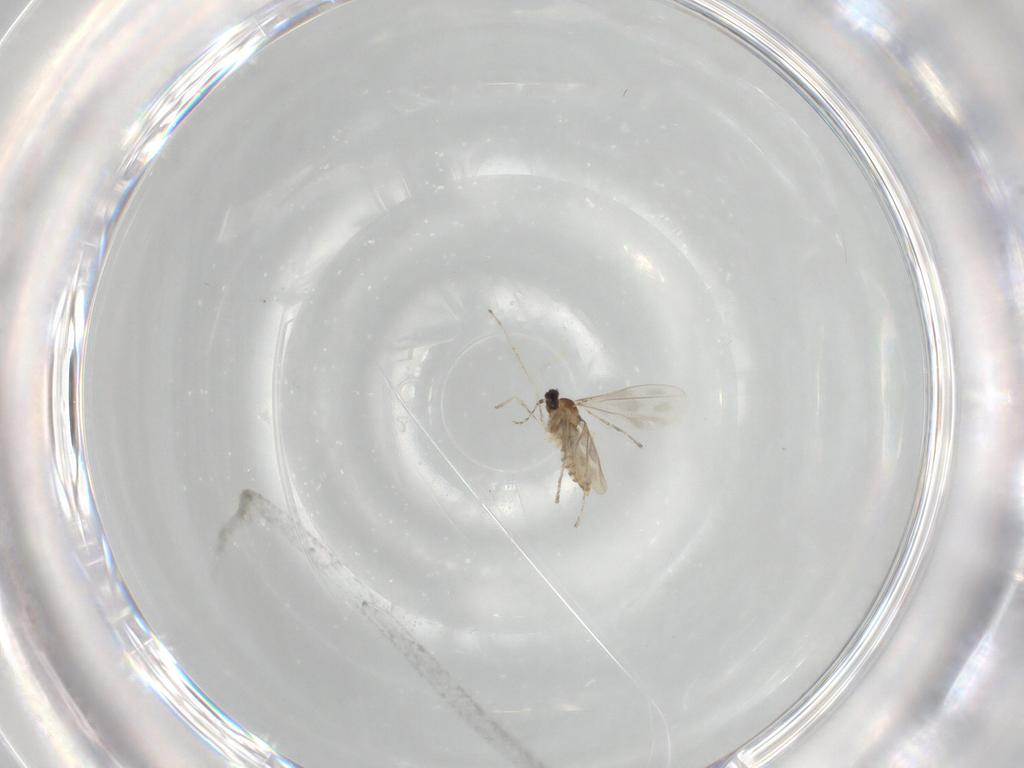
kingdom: Animalia
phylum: Arthropoda
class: Insecta
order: Diptera
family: Cecidomyiidae
